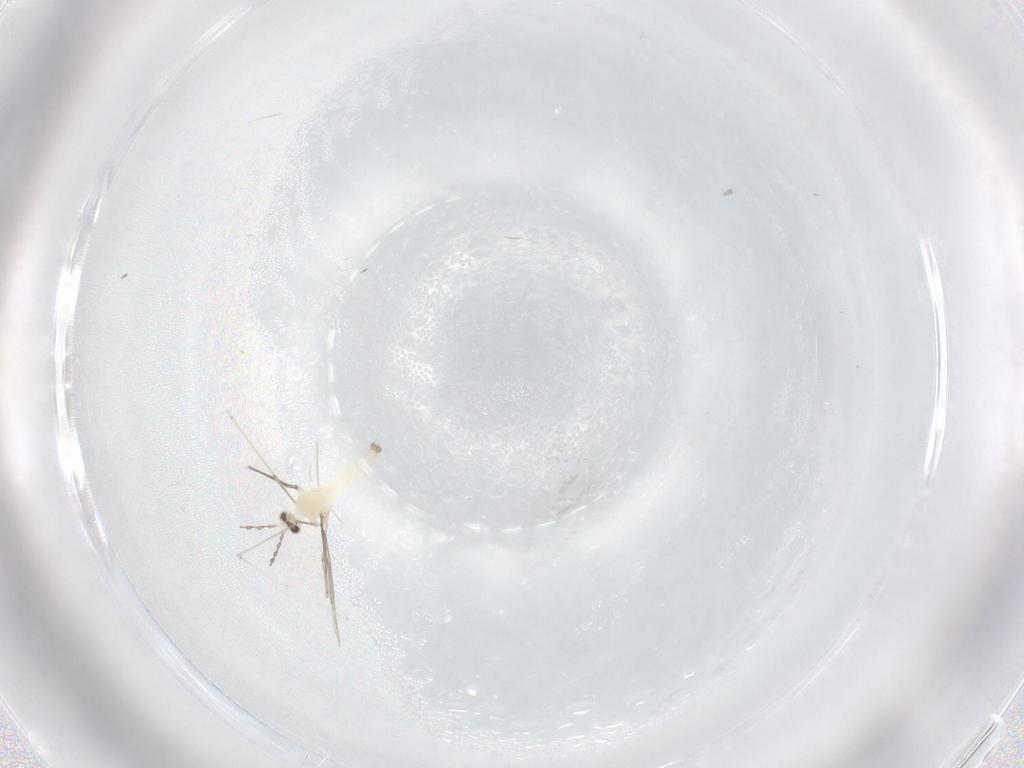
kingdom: Animalia
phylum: Arthropoda
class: Insecta
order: Diptera
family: Cecidomyiidae
